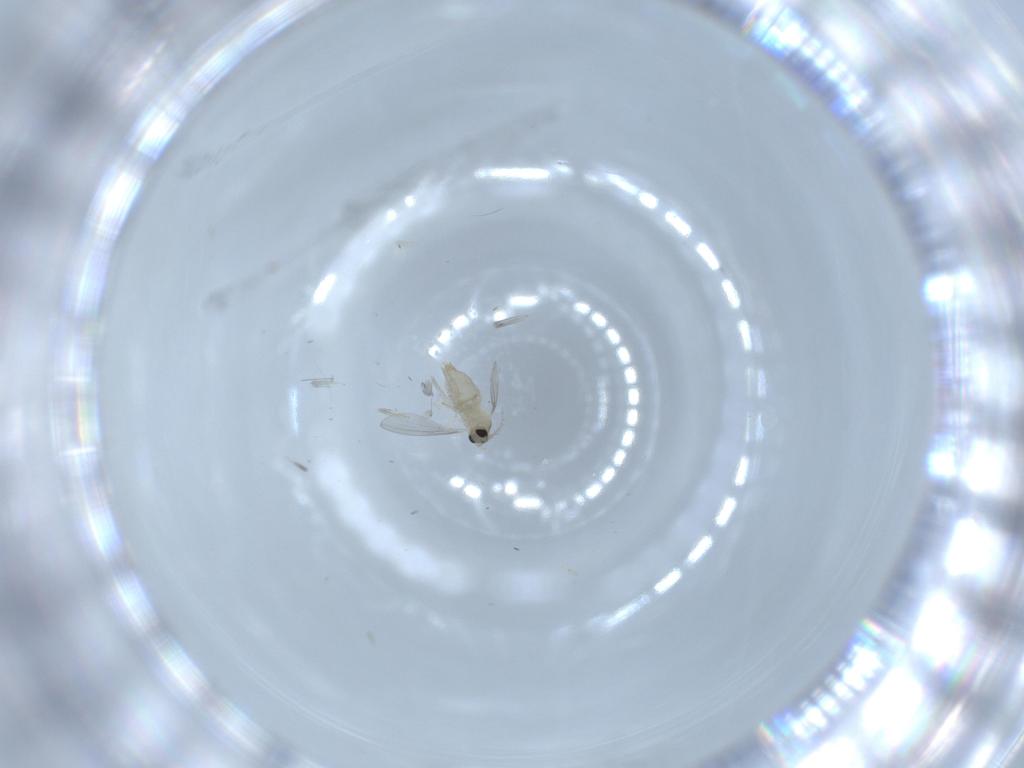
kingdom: Animalia
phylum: Arthropoda
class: Insecta
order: Diptera
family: Cecidomyiidae
